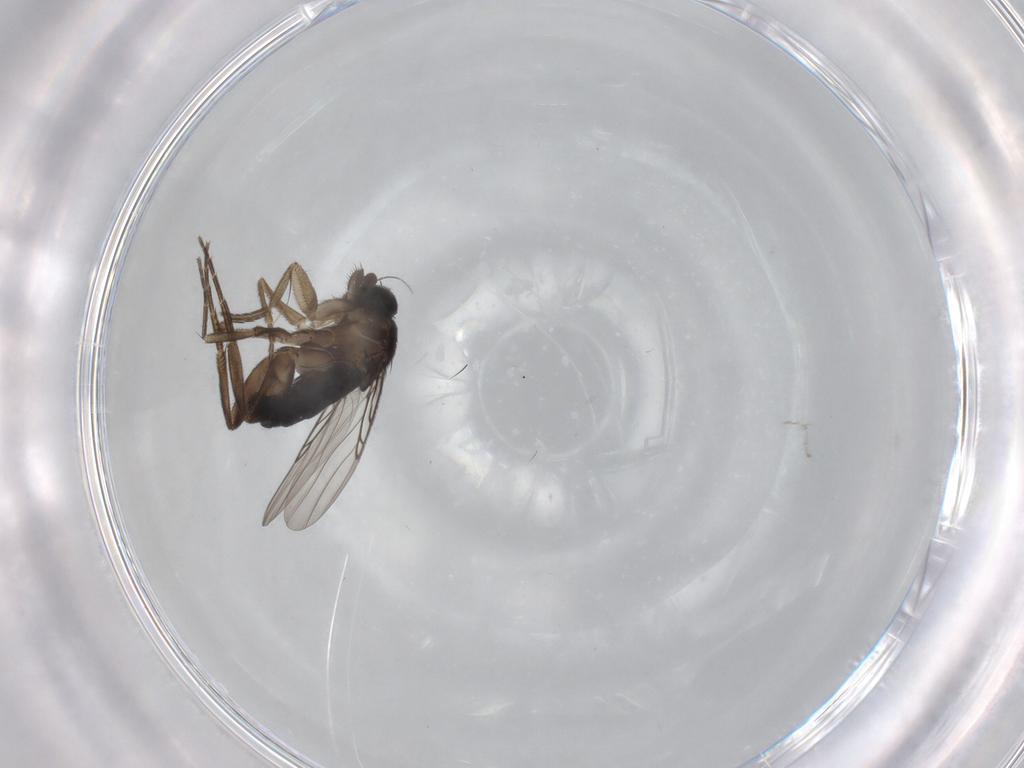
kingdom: Animalia
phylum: Arthropoda
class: Insecta
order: Diptera
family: Phoridae
